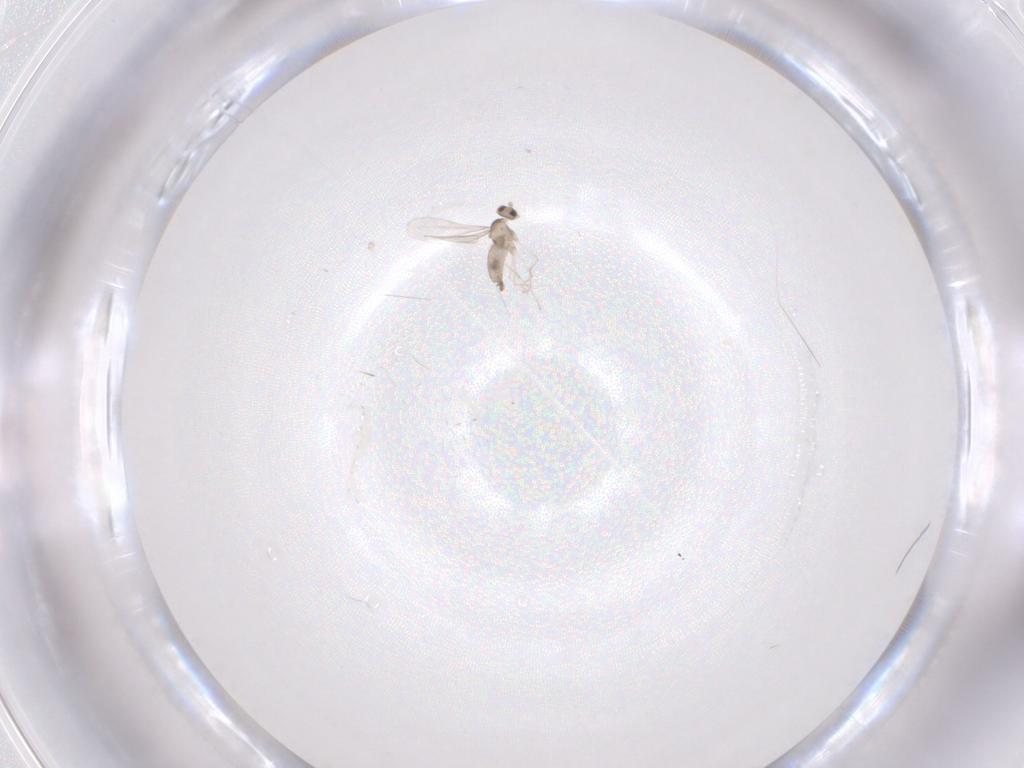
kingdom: Animalia
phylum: Arthropoda
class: Insecta
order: Diptera
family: Cecidomyiidae
